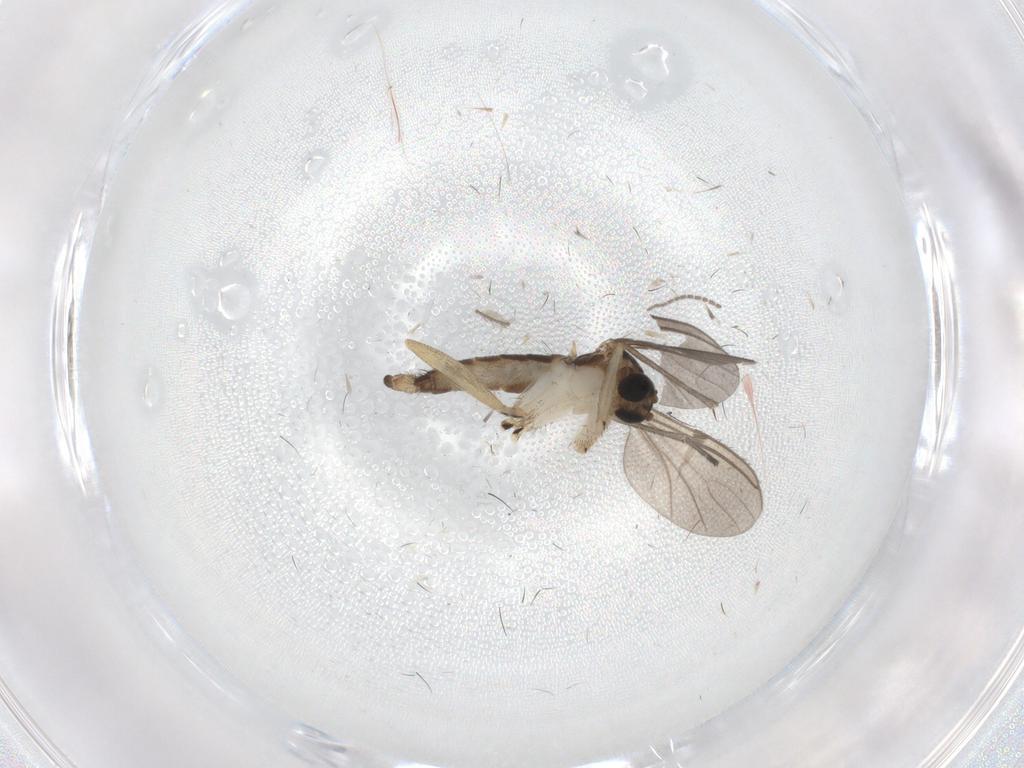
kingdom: Animalia
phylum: Arthropoda
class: Insecta
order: Diptera
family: Sciaridae
